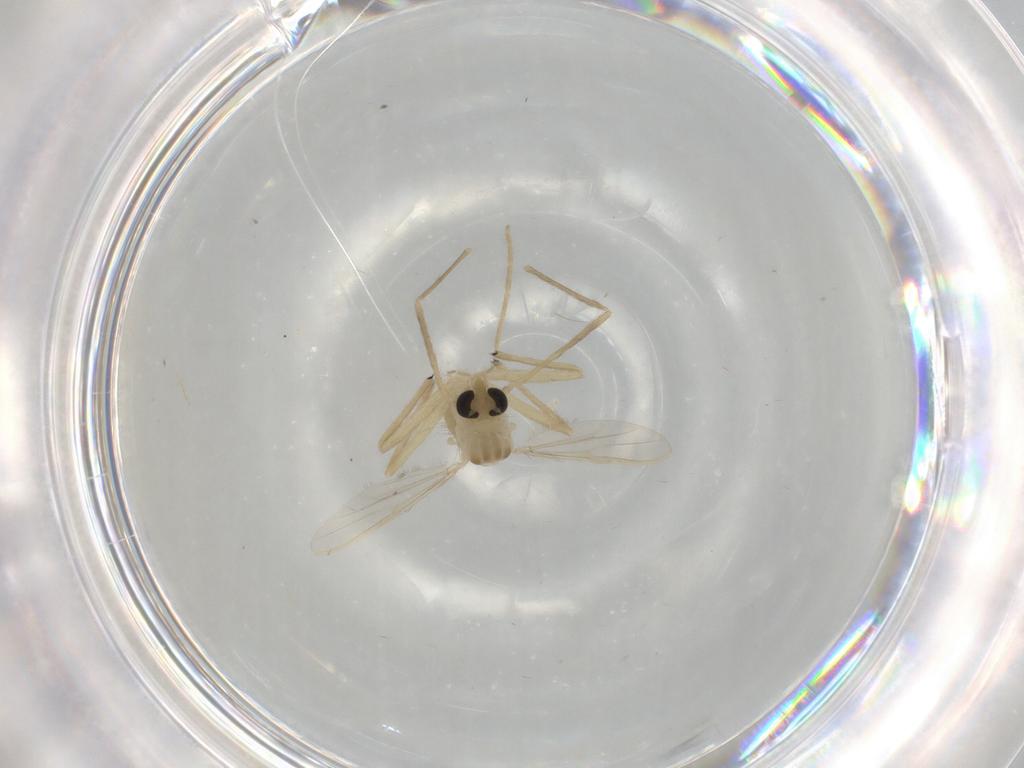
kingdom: Animalia
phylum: Arthropoda
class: Insecta
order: Diptera
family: Chironomidae
